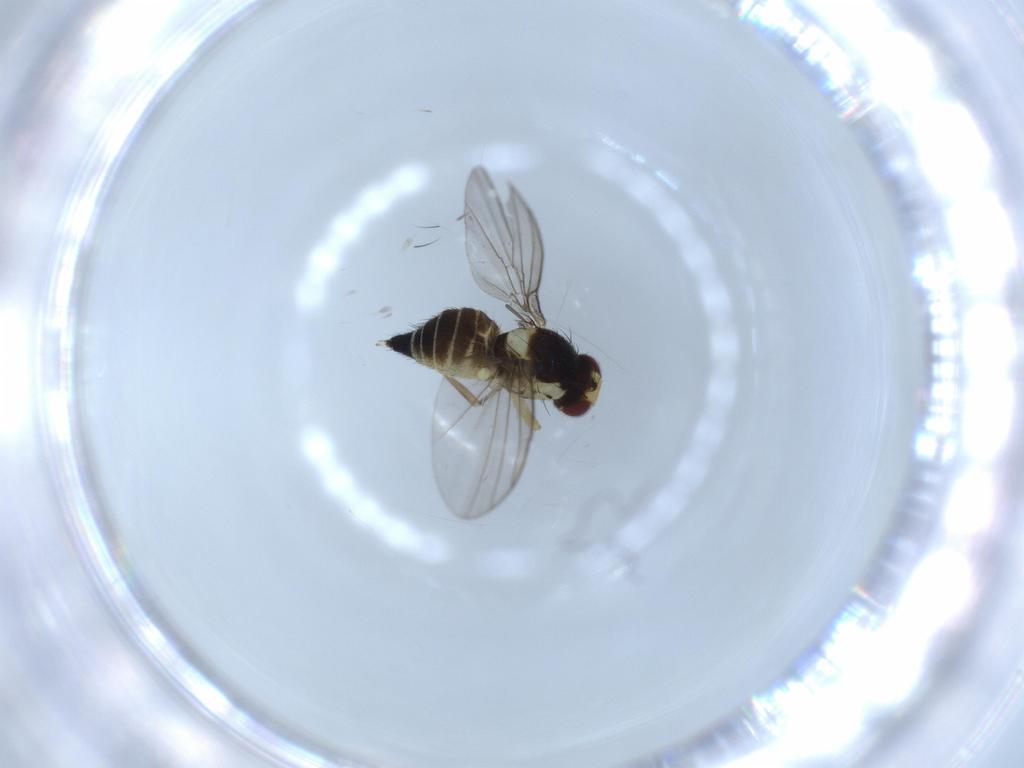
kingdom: Animalia
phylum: Arthropoda
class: Insecta
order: Diptera
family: Agromyzidae
